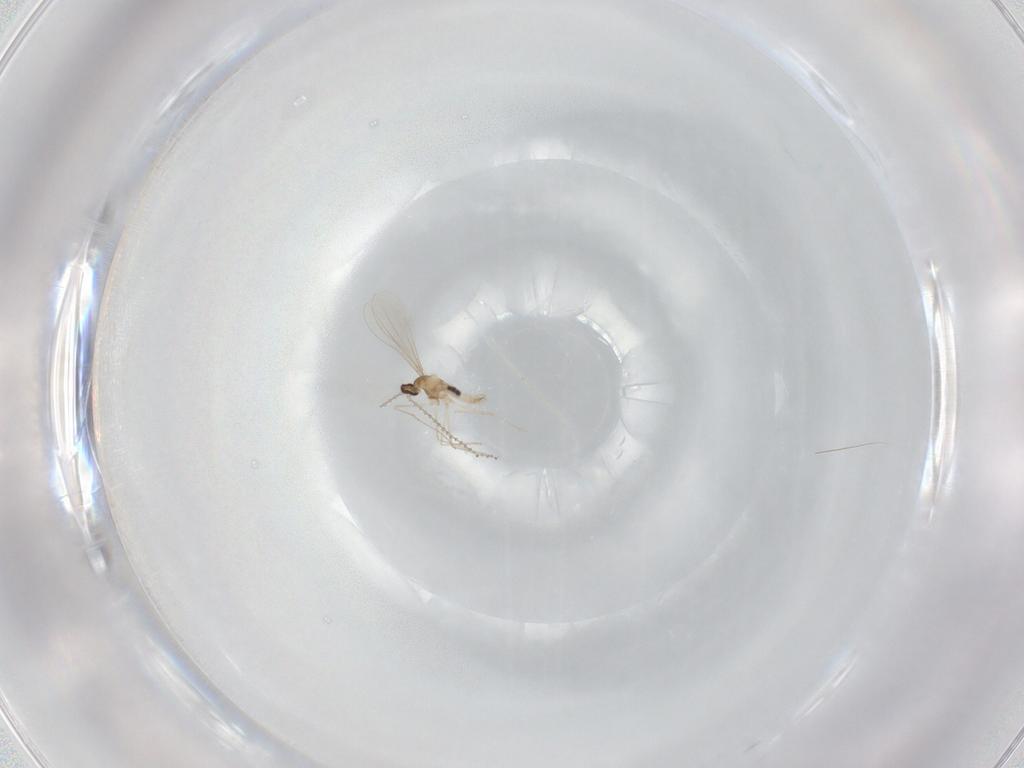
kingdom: Animalia
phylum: Arthropoda
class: Insecta
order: Diptera
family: Cecidomyiidae
